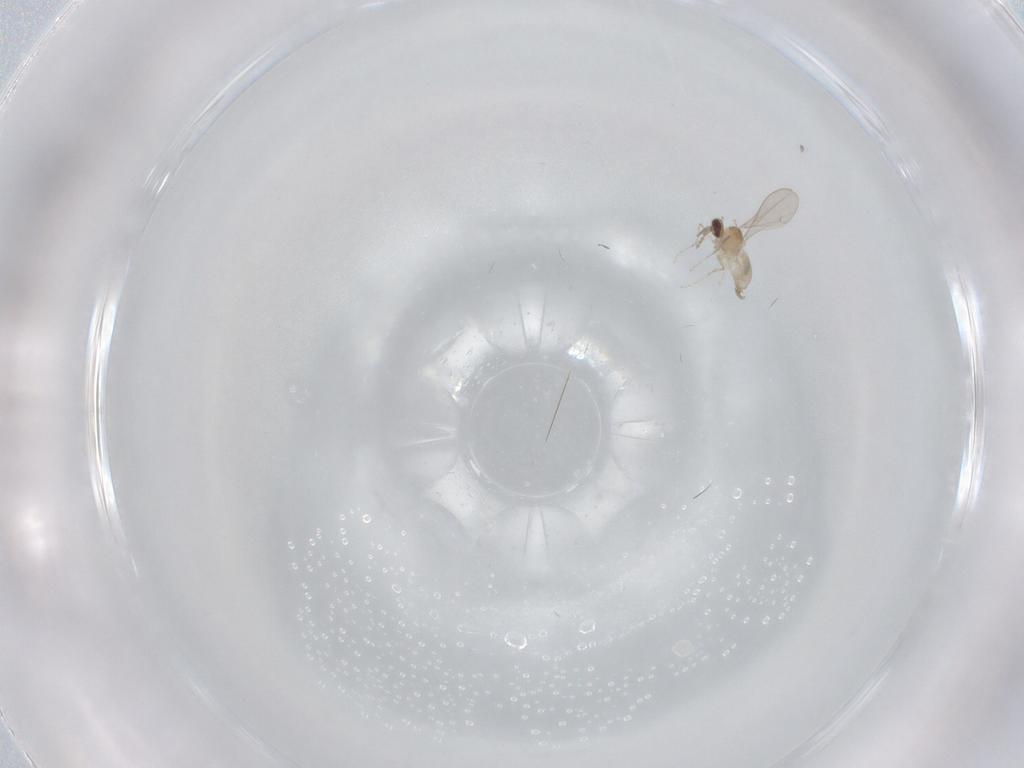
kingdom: Animalia
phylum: Arthropoda
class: Insecta
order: Diptera
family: Cecidomyiidae
